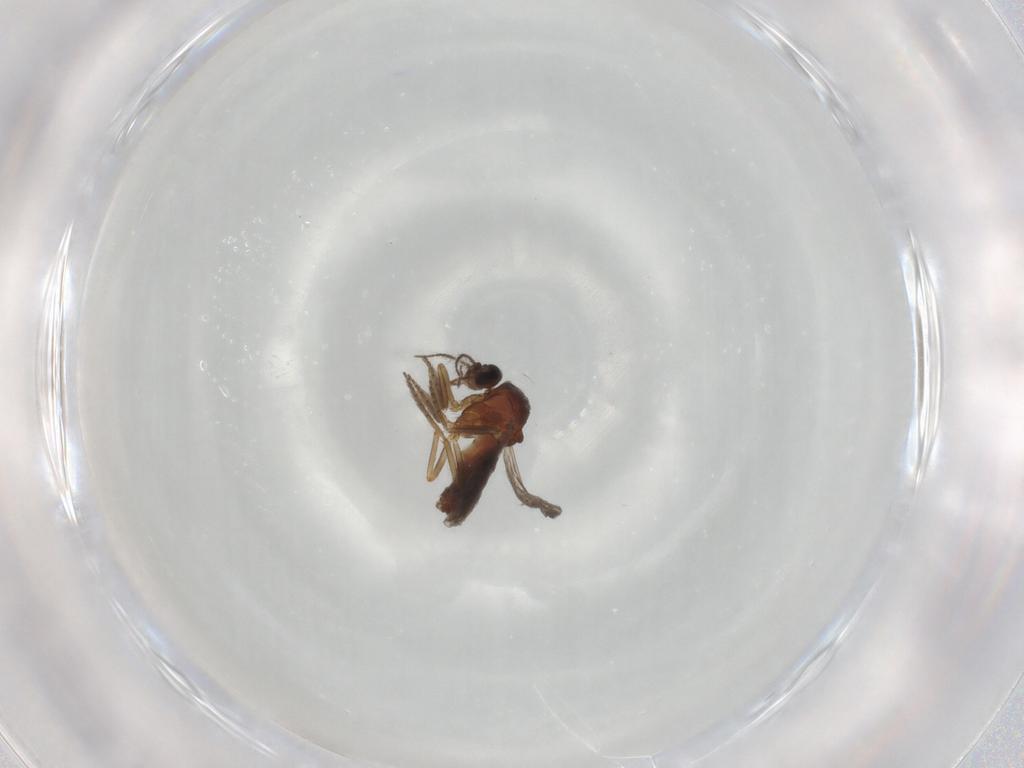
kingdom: Animalia
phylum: Arthropoda
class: Insecta
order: Diptera
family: Ceratopogonidae
